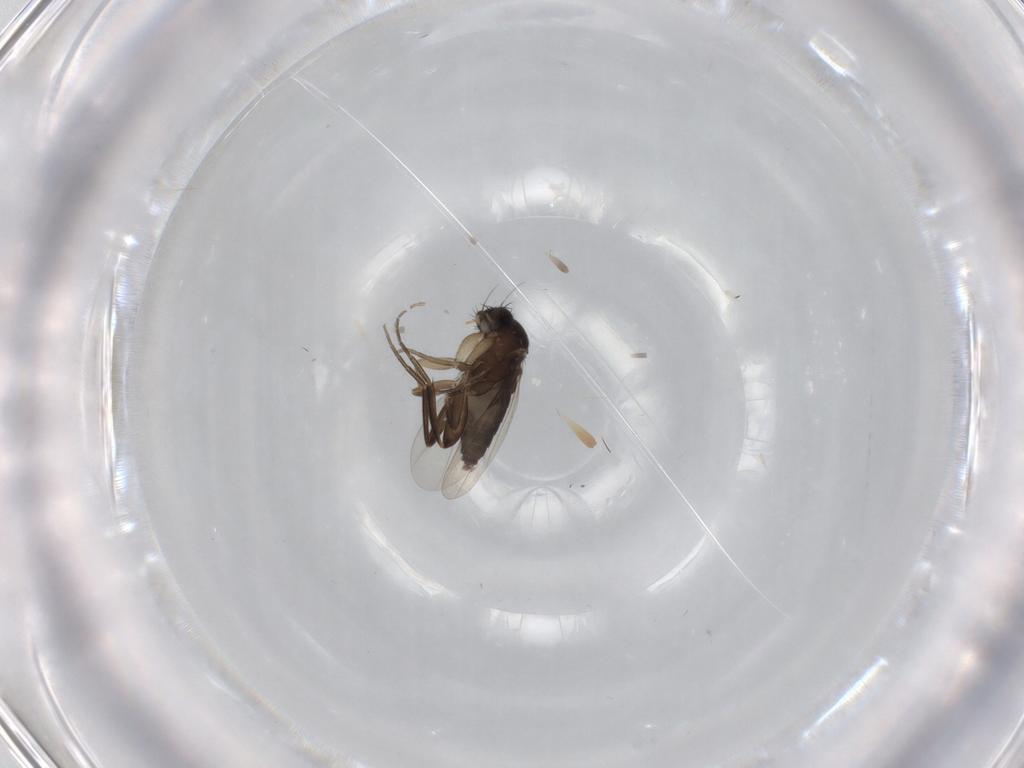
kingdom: Animalia
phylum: Arthropoda
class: Insecta
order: Diptera
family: Phoridae
